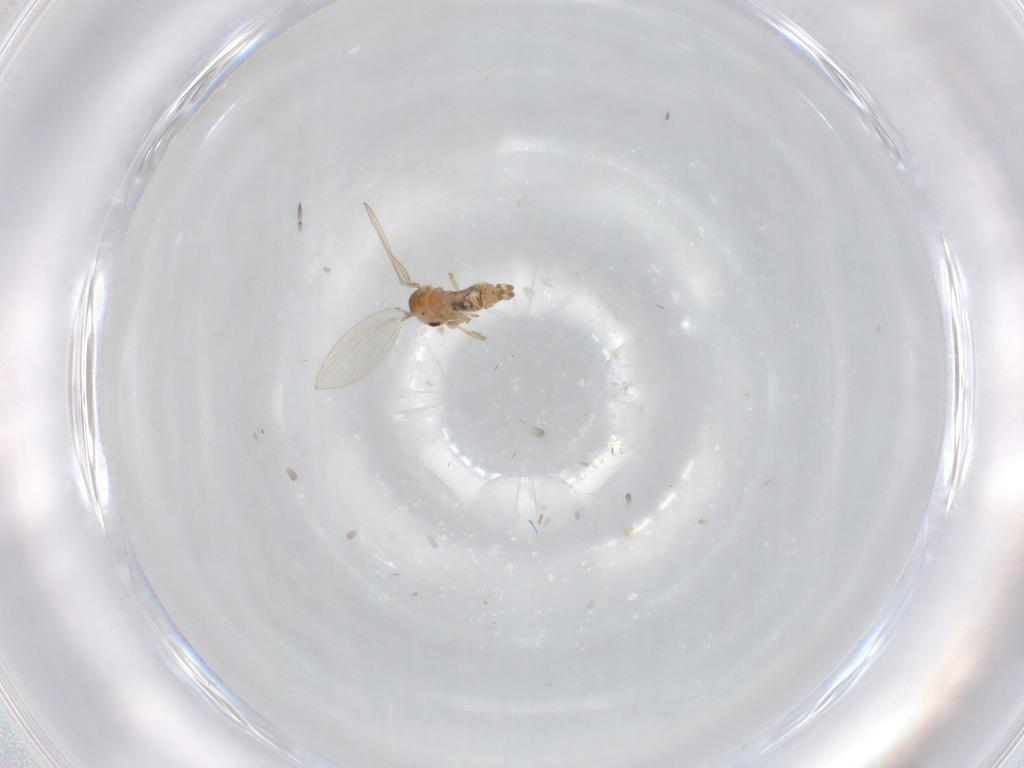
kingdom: Animalia
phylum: Arthropoda
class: Insecta
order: Diptera
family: Psychodidae
